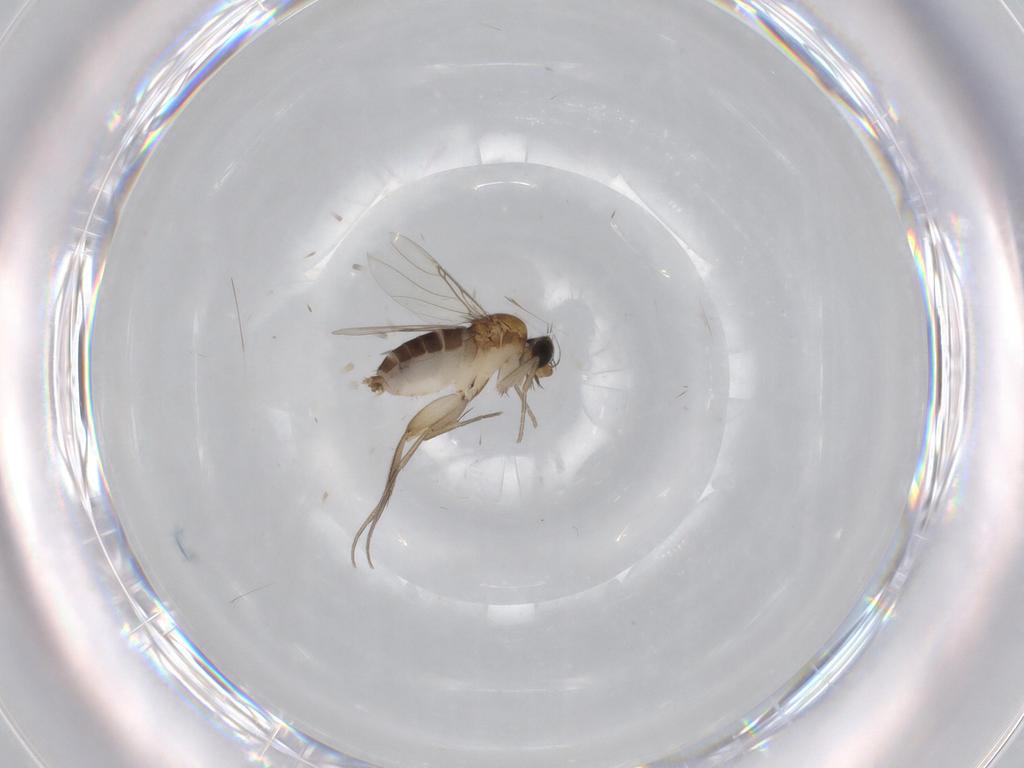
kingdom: Animalia
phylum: Arthropoda
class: Insecta
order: Diptera
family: Phoridae
